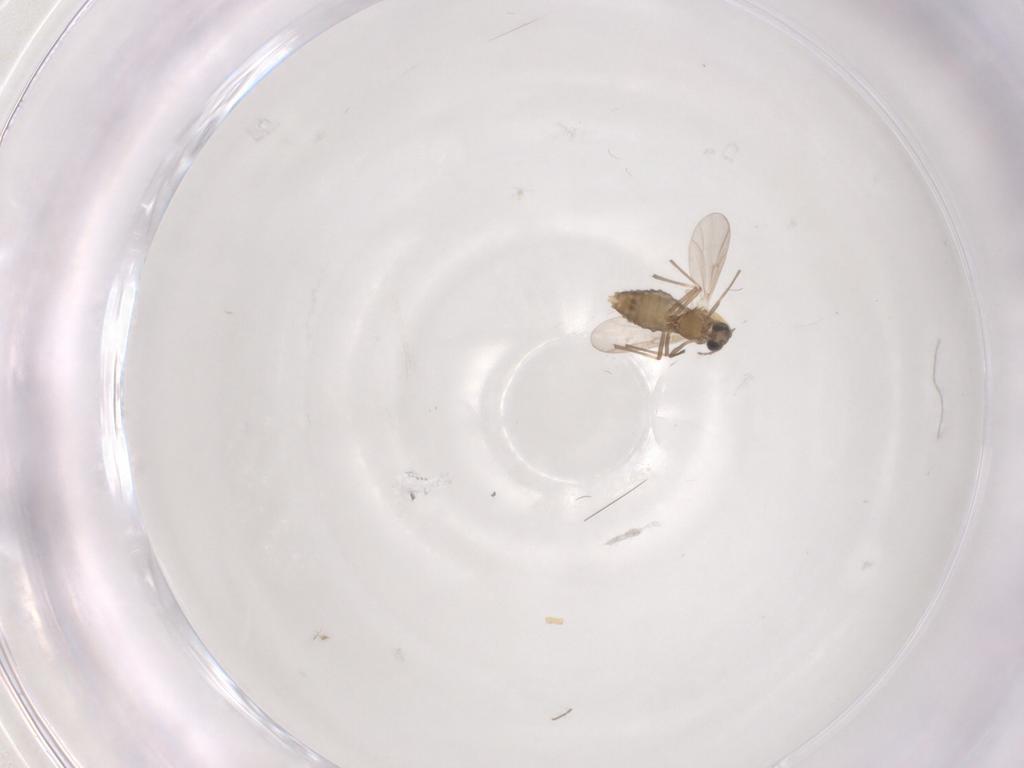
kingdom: Animalia
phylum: Arthropoda
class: Insecta
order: Diptera
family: Chironomidae
